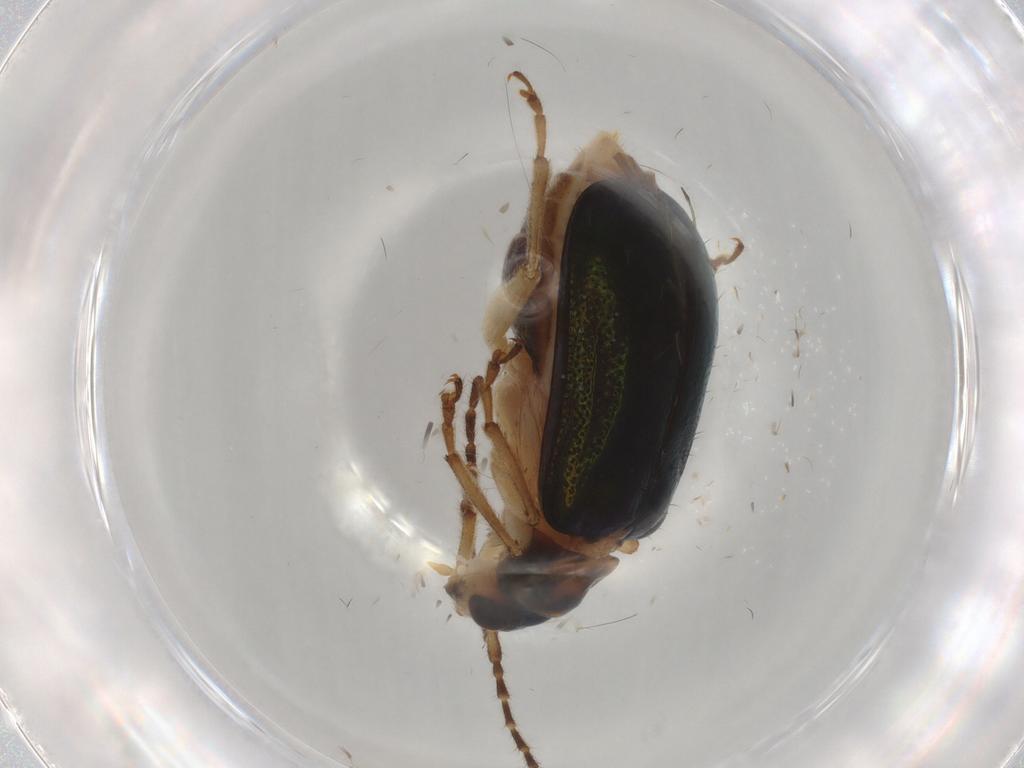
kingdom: Animalia
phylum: Arthropoda
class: Insecta
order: Coleoptera
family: Chrysomelidae
